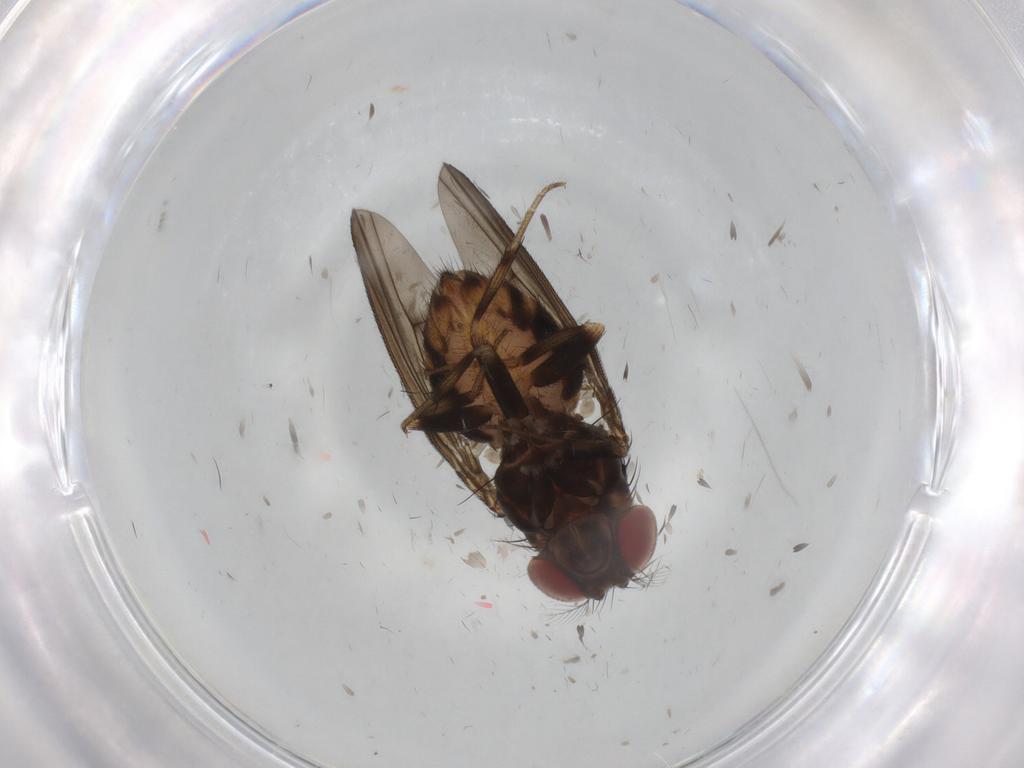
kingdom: Animalia
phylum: Arthropoda
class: Insecta
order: Diptera
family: Drosophilidae
